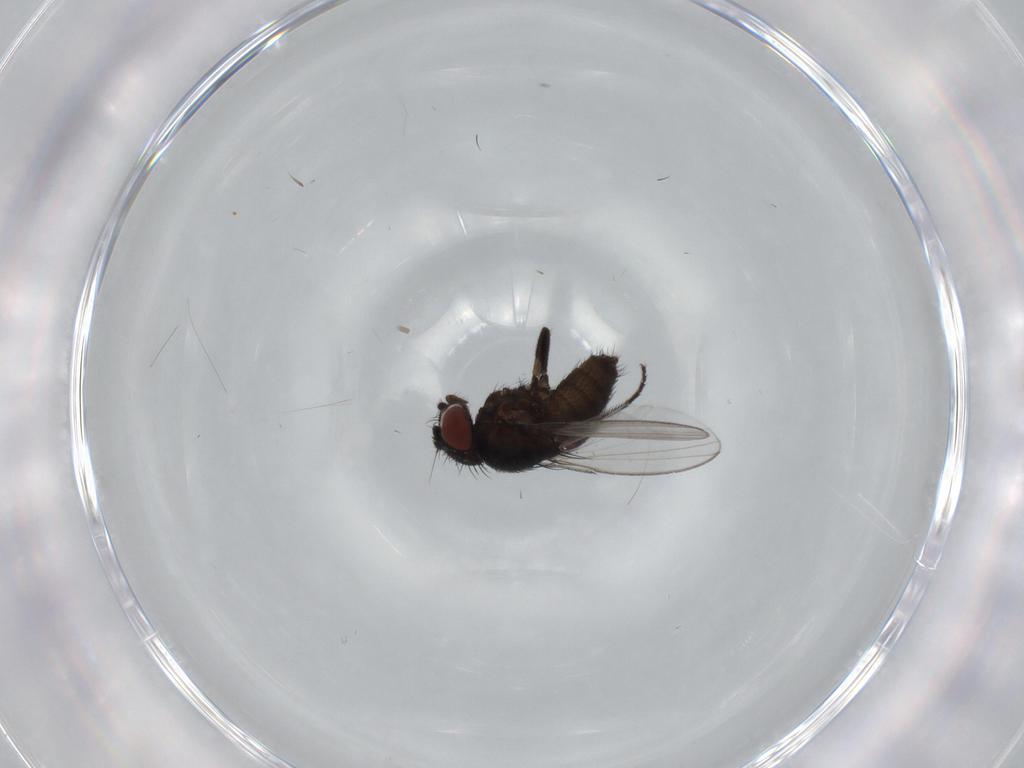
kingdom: Animalia
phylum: Arthropoda
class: Insecta
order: Diptera
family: Milichiidae
